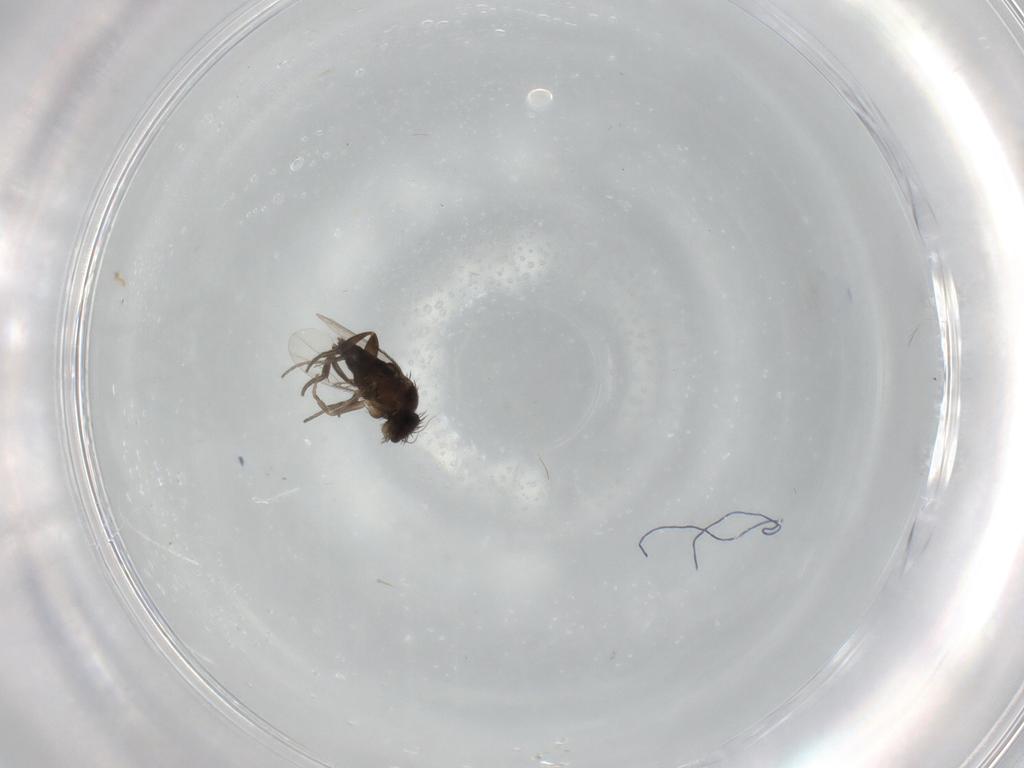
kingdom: Animalia
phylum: Arthropoda
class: Insecta
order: Diptera
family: Phoridae
